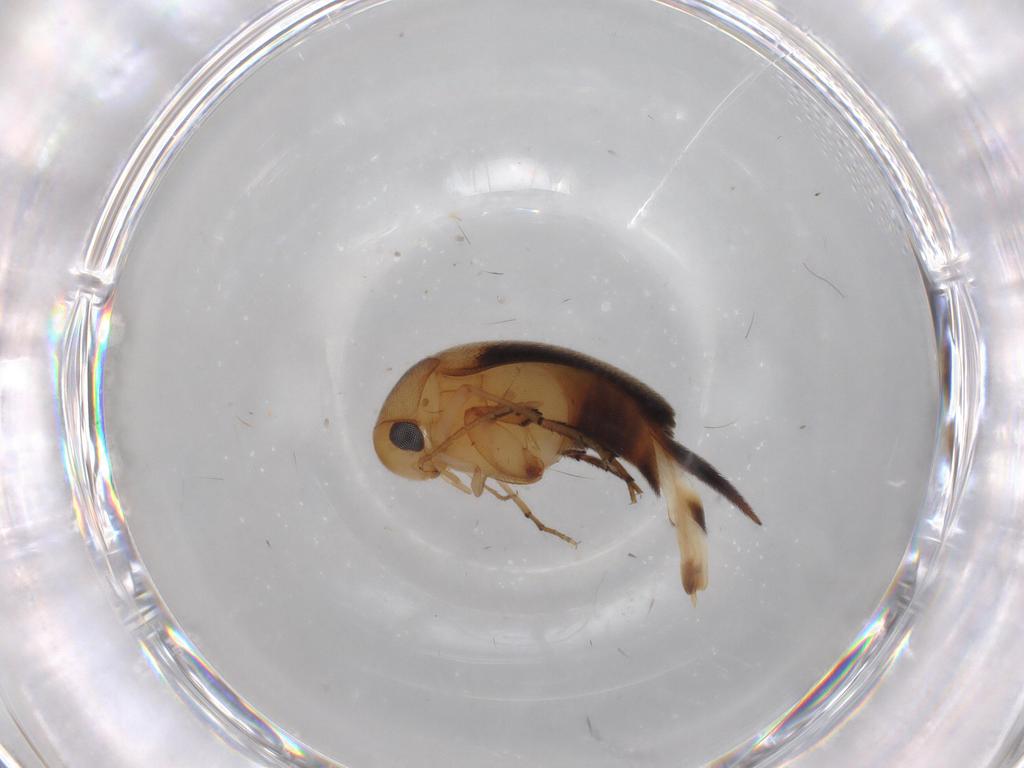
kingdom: Animalia
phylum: Arthropoda
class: Insecta
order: Coleoptera
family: Mordellidae
